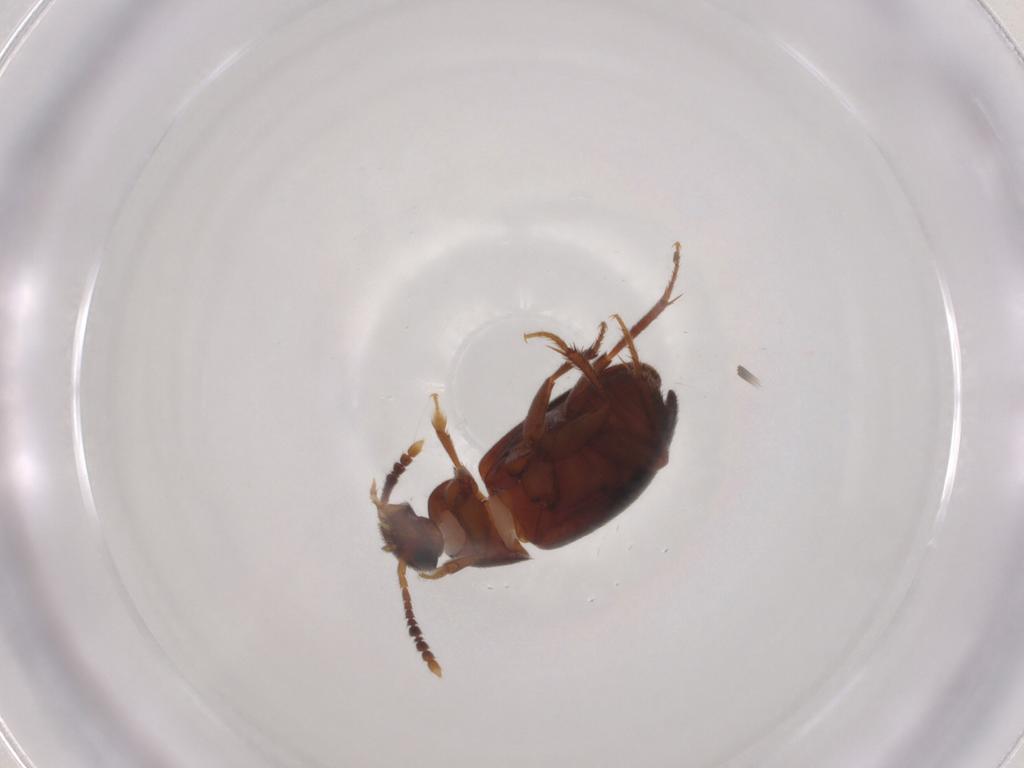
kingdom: Animalia
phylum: Arthropoda
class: Insecta
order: Coleoptera
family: Leiodidae
